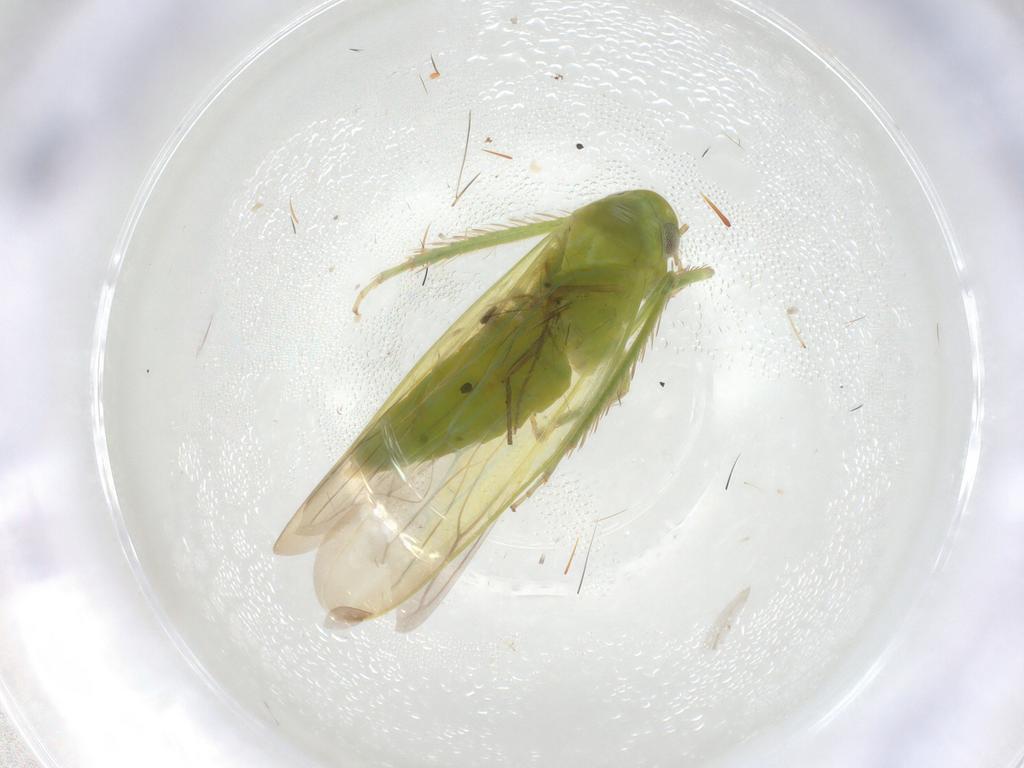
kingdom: Animalia
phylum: Arthropoda
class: Insecta
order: Hemiptera
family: Cicadellidae
